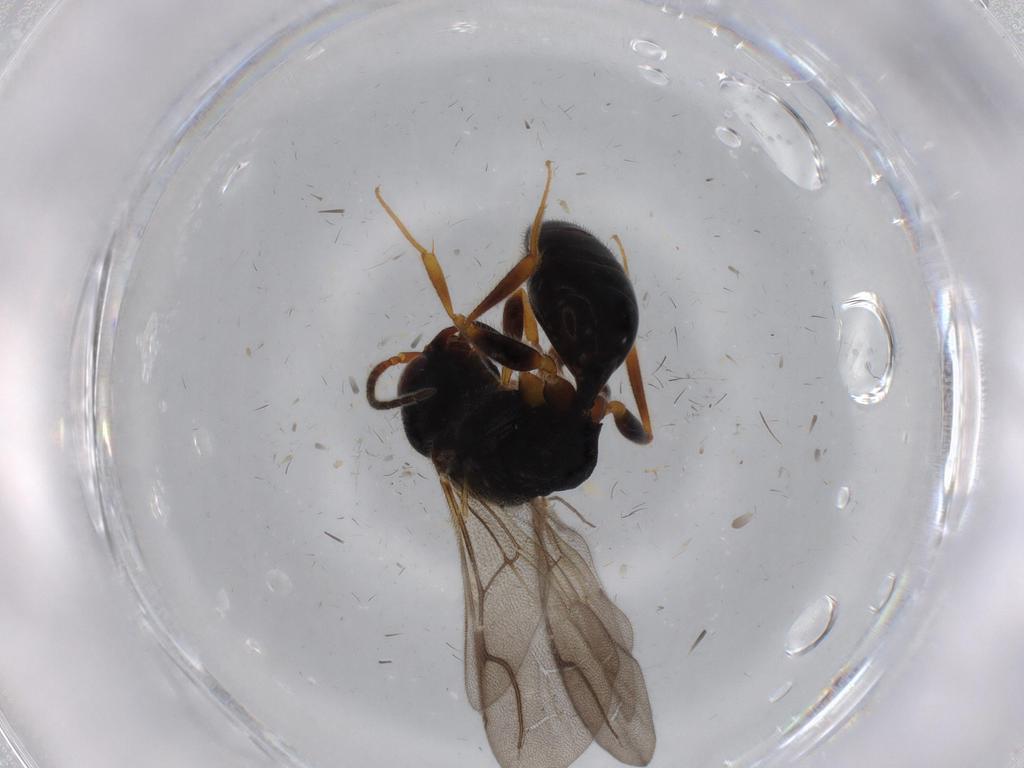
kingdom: Animalia
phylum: Arthropoda
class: Insecta
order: Hymenoptera
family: Bethylidae
